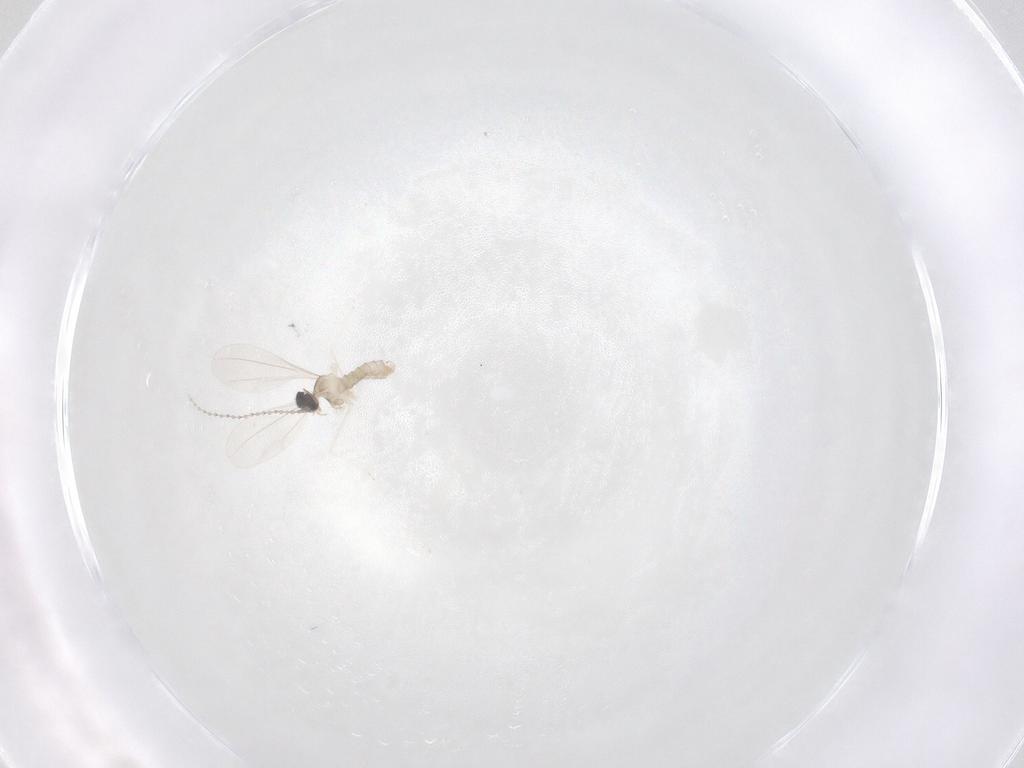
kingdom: Animalia
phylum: Arthropoda
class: Insecta
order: Diptera
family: Cecidomyiidae
